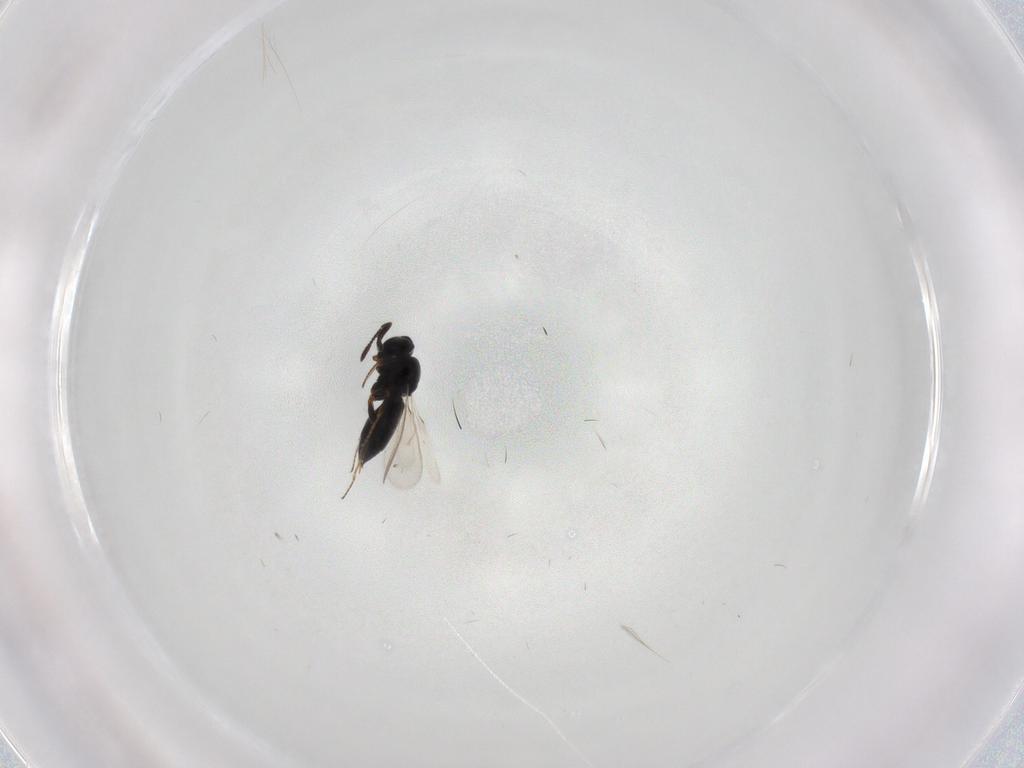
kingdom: Animalia
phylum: Arthropoda
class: Insecta
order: Hymenoptera
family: Scelionidae
